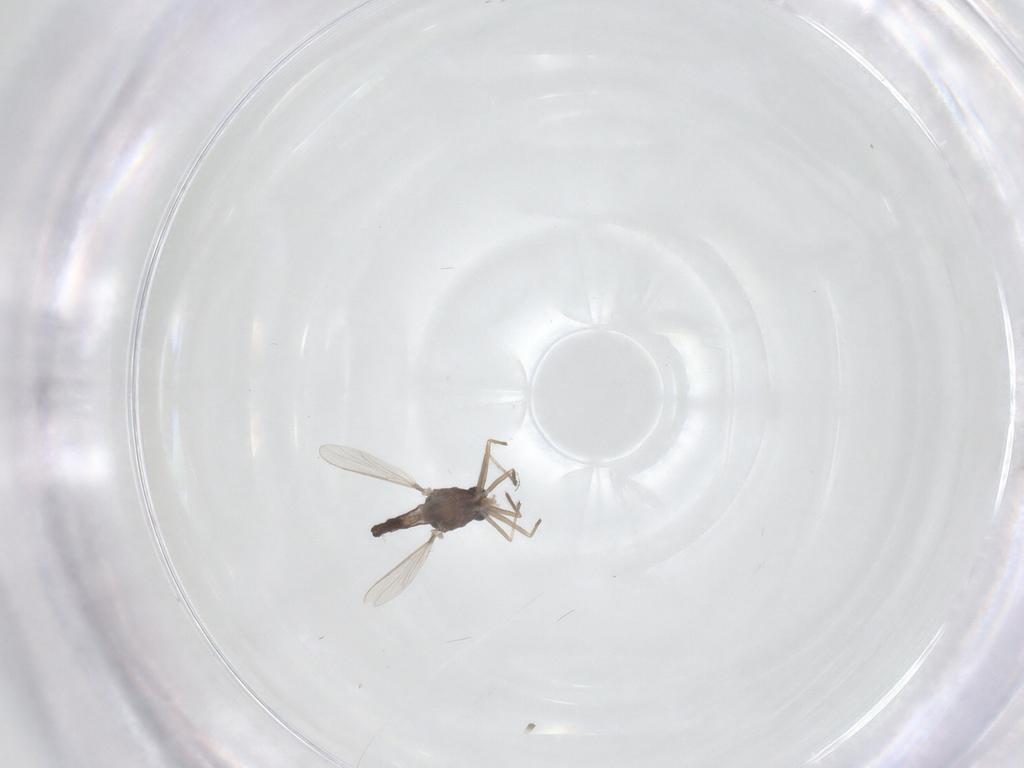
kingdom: Animalia
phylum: Arthropoda
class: Insecta
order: Diptera
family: Chironomidae
